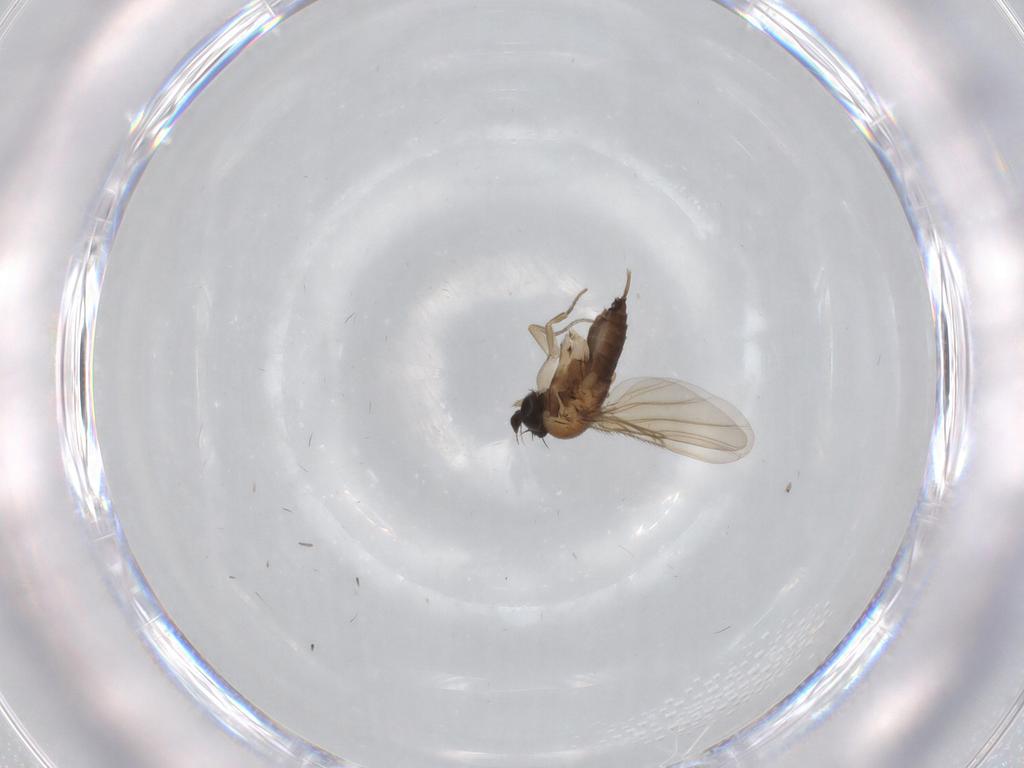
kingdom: Animalia
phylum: Arthropoda
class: Insecta
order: Diptera
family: Phoridae
